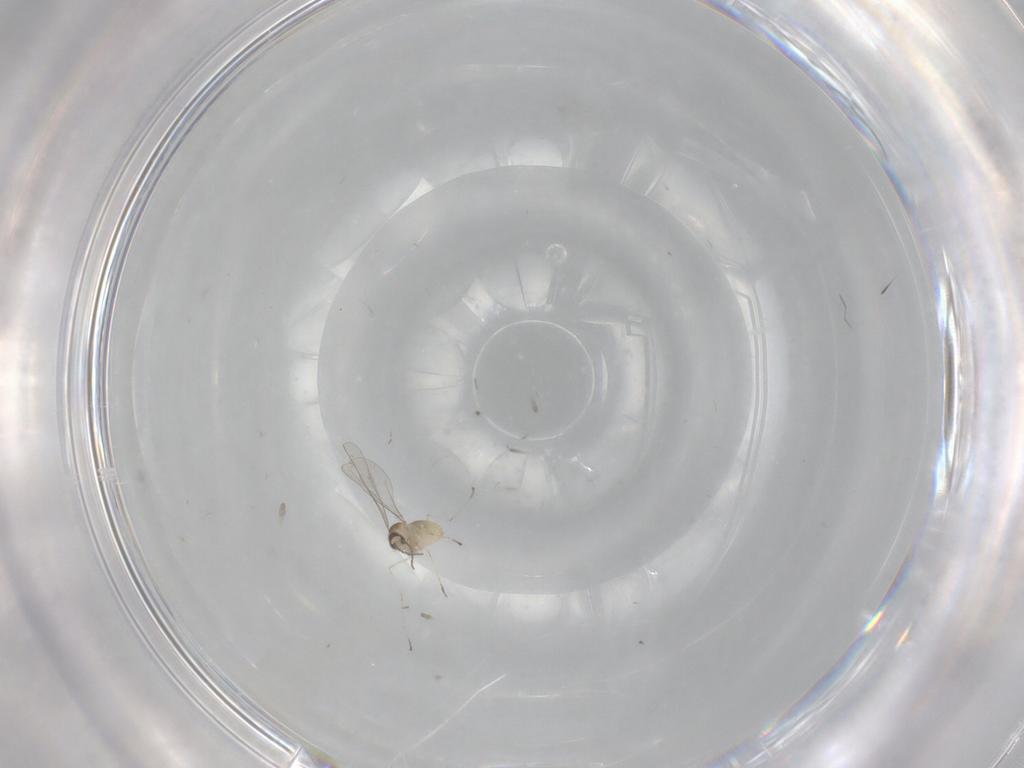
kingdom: Animalia
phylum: Arthropoda
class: Insecta
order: Diptera
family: Cecidomyiidae
